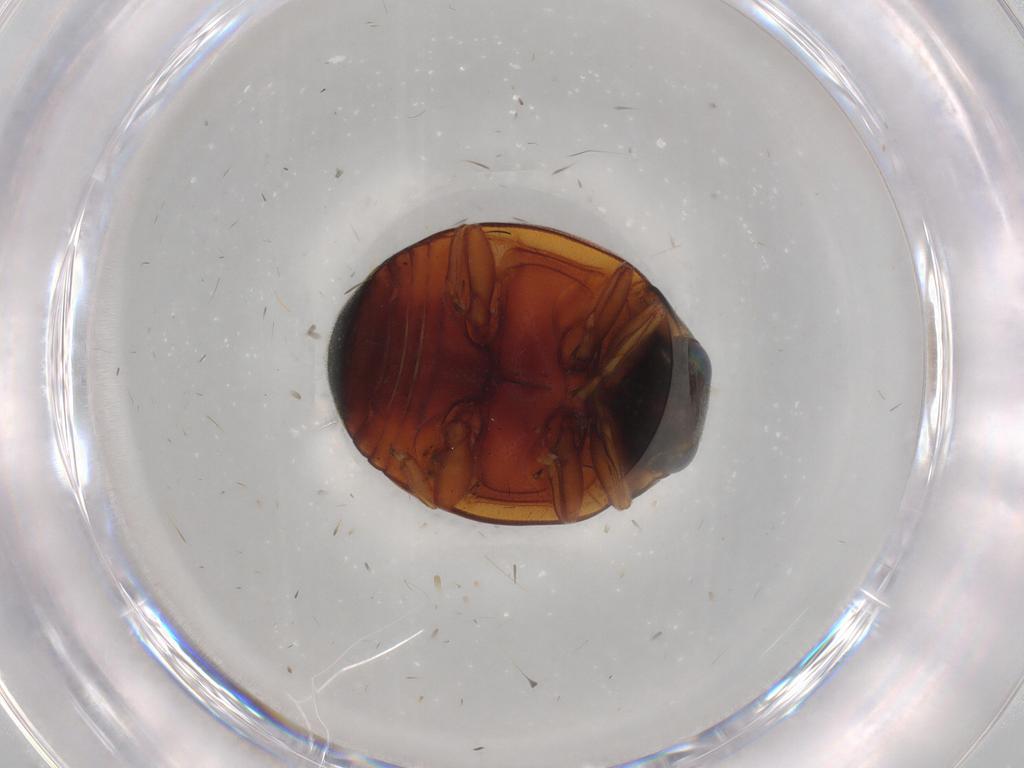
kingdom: Animalia
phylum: Arthropoda
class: Insecta
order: Coleoptera
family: Coccinellidae
